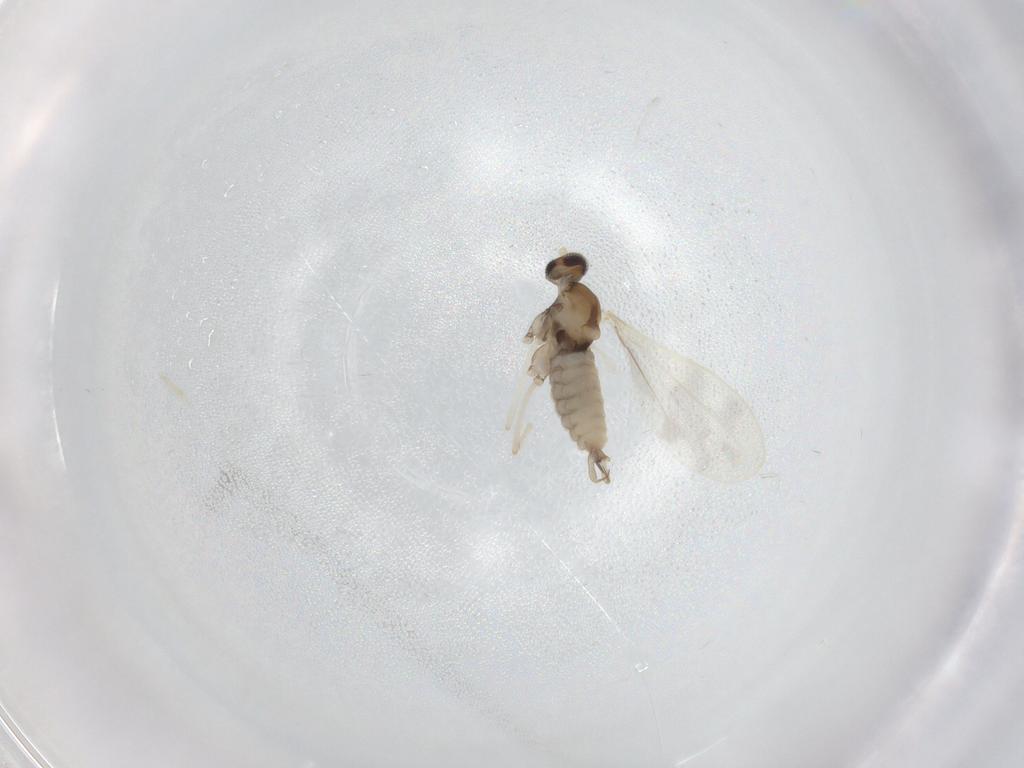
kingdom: Animalia
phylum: Arthropoda
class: Insecta
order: Diptera
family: Cecidomyiidae
